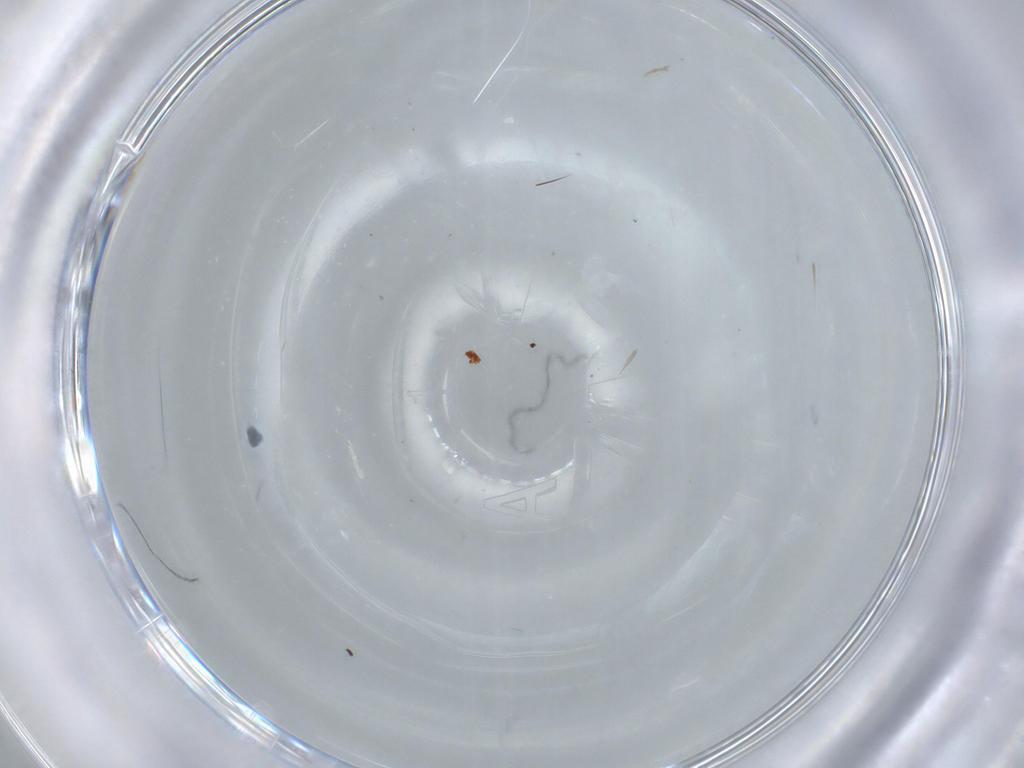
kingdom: Animalia
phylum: Arthropoda
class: Insecta
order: Diptera
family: Cecidomyiidae
